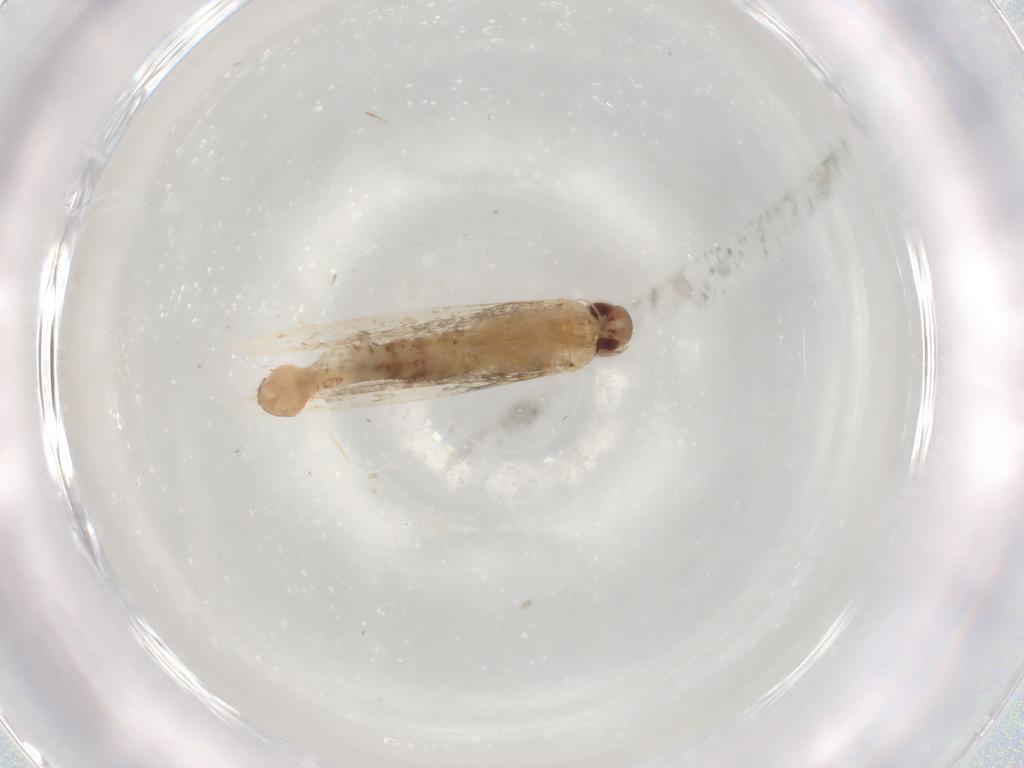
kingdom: Animalia
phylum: Arthropoda
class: Insecta
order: Lepidoptera
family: Cosmopterigidae
